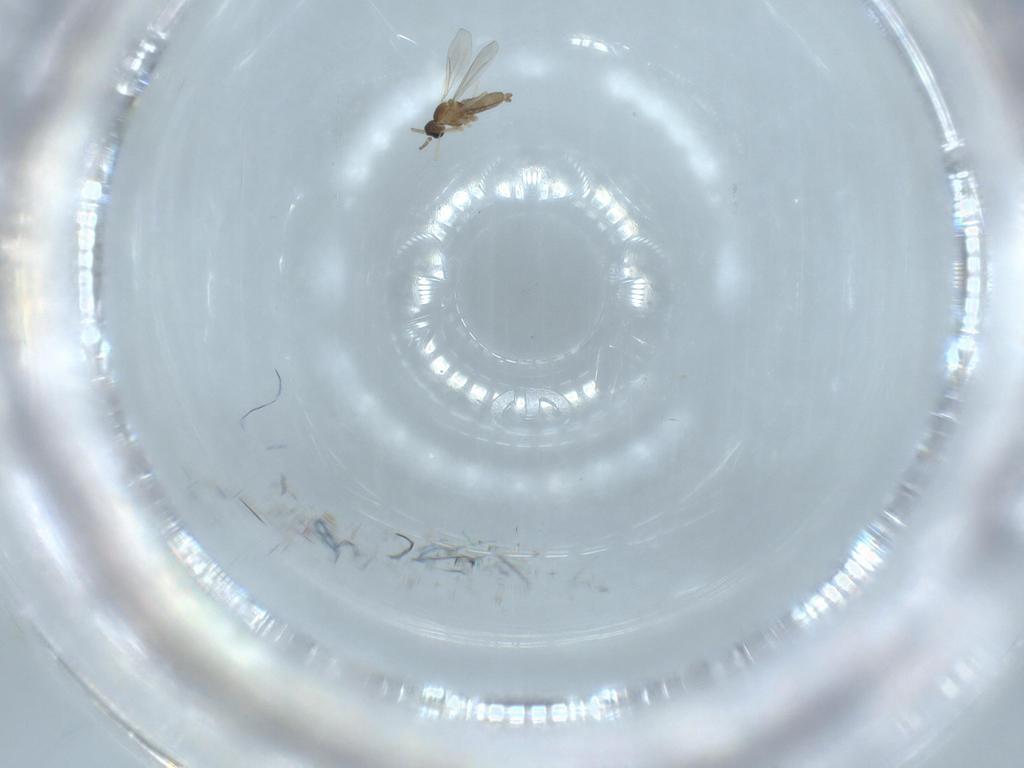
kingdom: Animalia
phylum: Arthropoda
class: Insecta
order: Diptera
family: Cecidomyiidae
